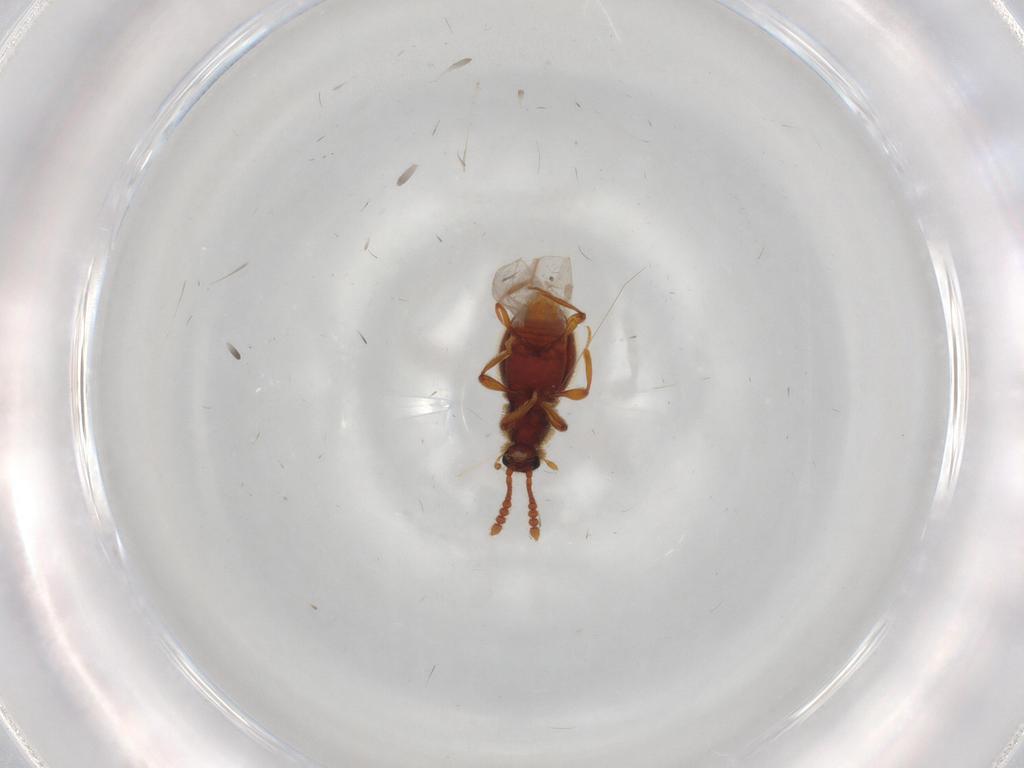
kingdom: Animalia
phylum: Arthropoda
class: Insecta
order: Coleoptera
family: Staphylinidae
